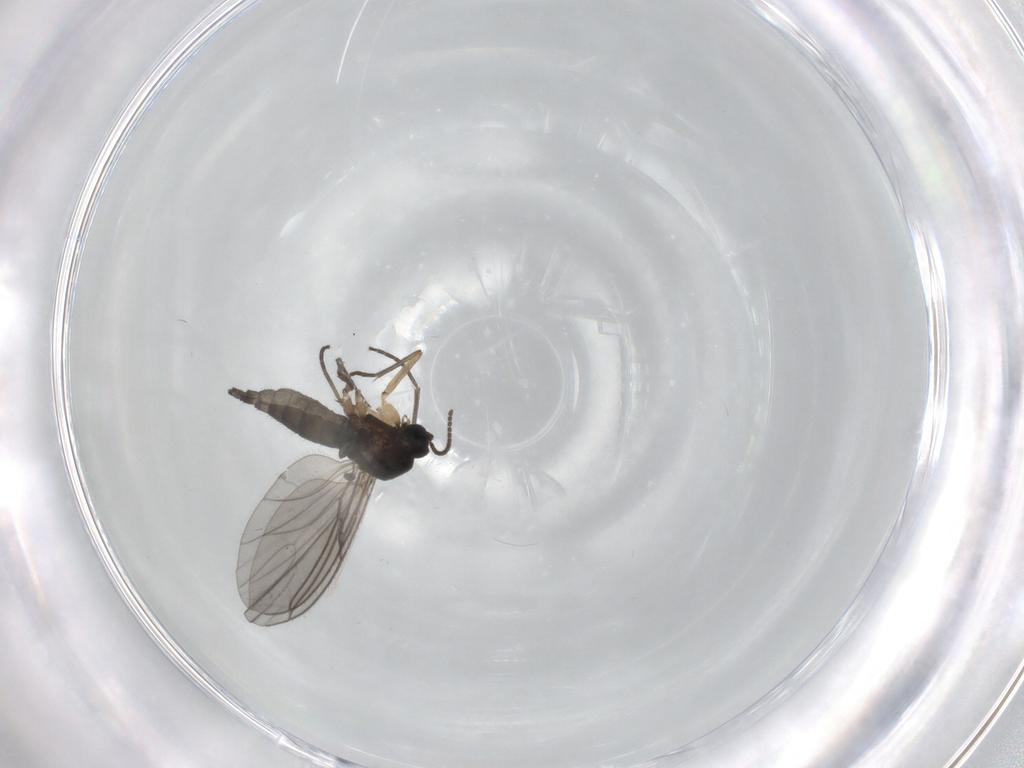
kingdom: Animalia
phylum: Arthropoda
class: Insecta
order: Diptera
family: Sciaridae
